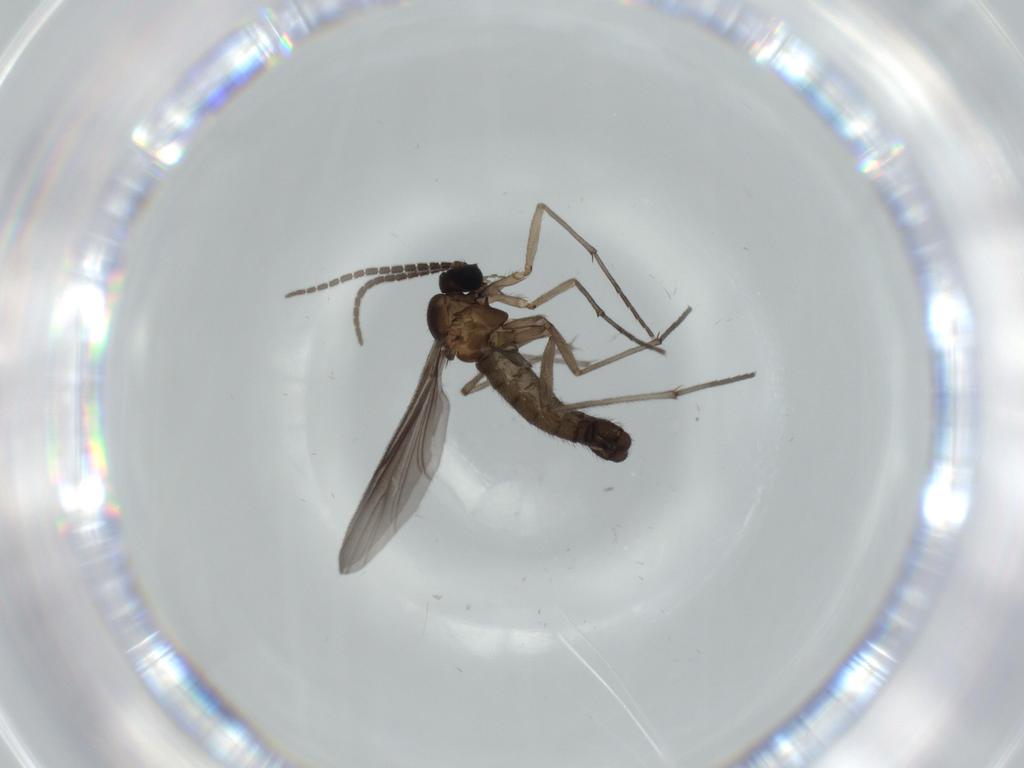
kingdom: Animalia
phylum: Arthropoda
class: Insecta
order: Diptera
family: Sciaridae
